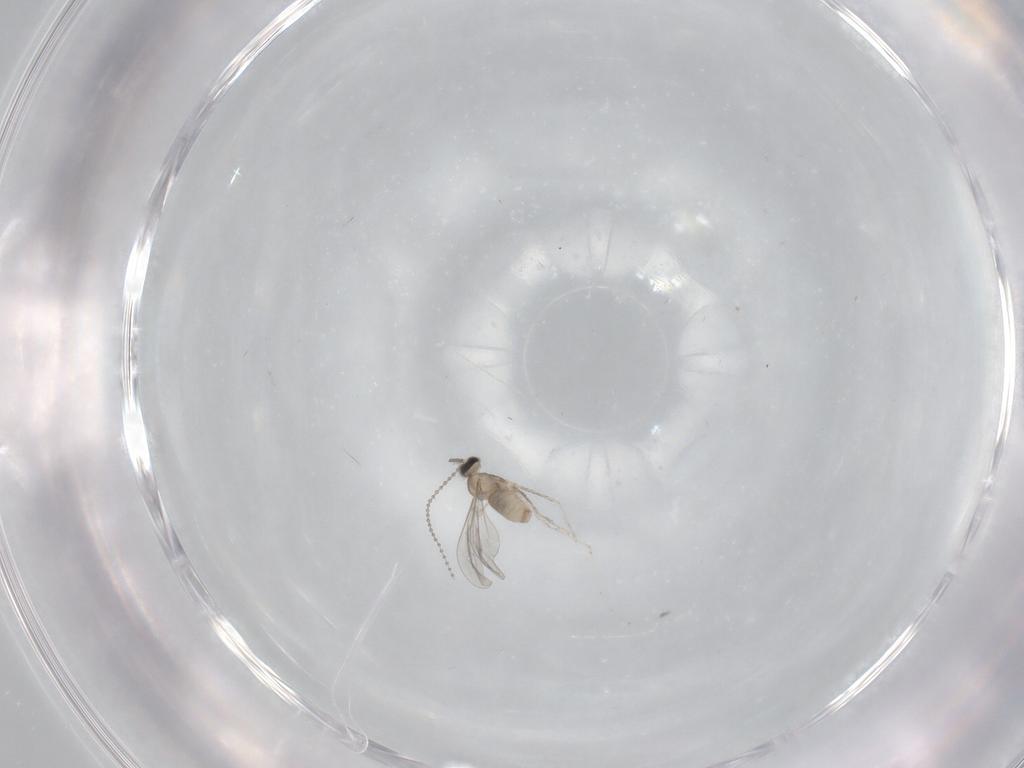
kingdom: Animalia
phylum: Arthropoda
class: Insecta
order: Diptera
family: Cecidomyiidae
